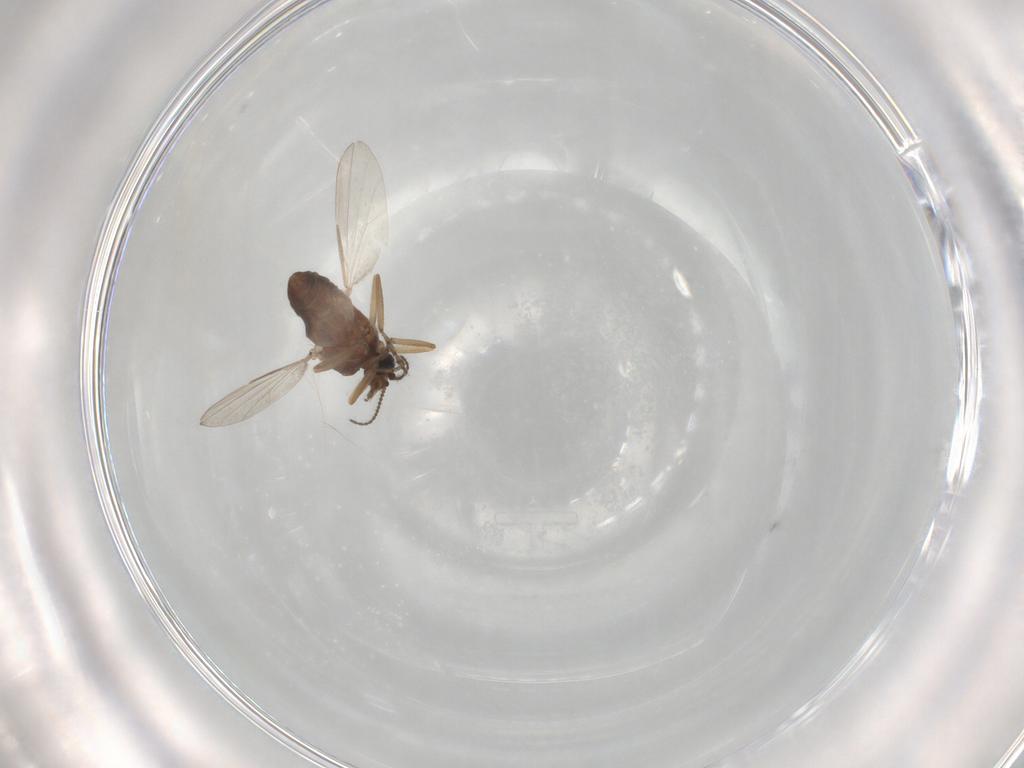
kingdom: Animalia
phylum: Arthropoda
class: Insecta
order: Diptera
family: Ceratopogonidae
